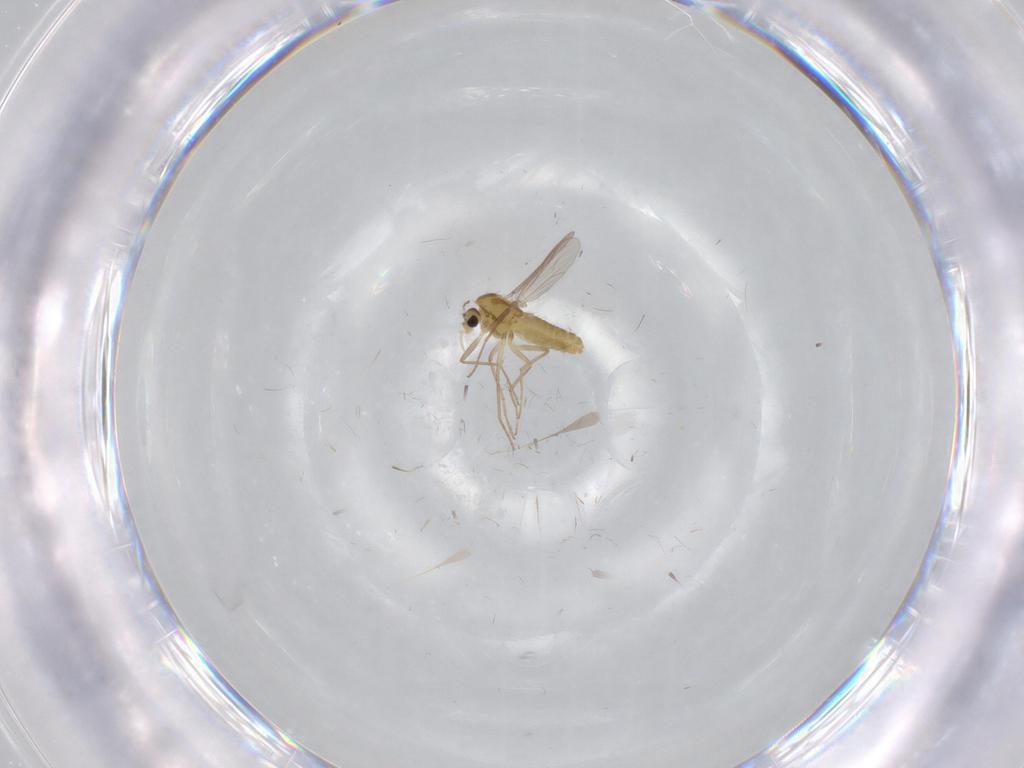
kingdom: Animalia
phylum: Arthropoda
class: Insecta
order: Diptera
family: Chironomidae
